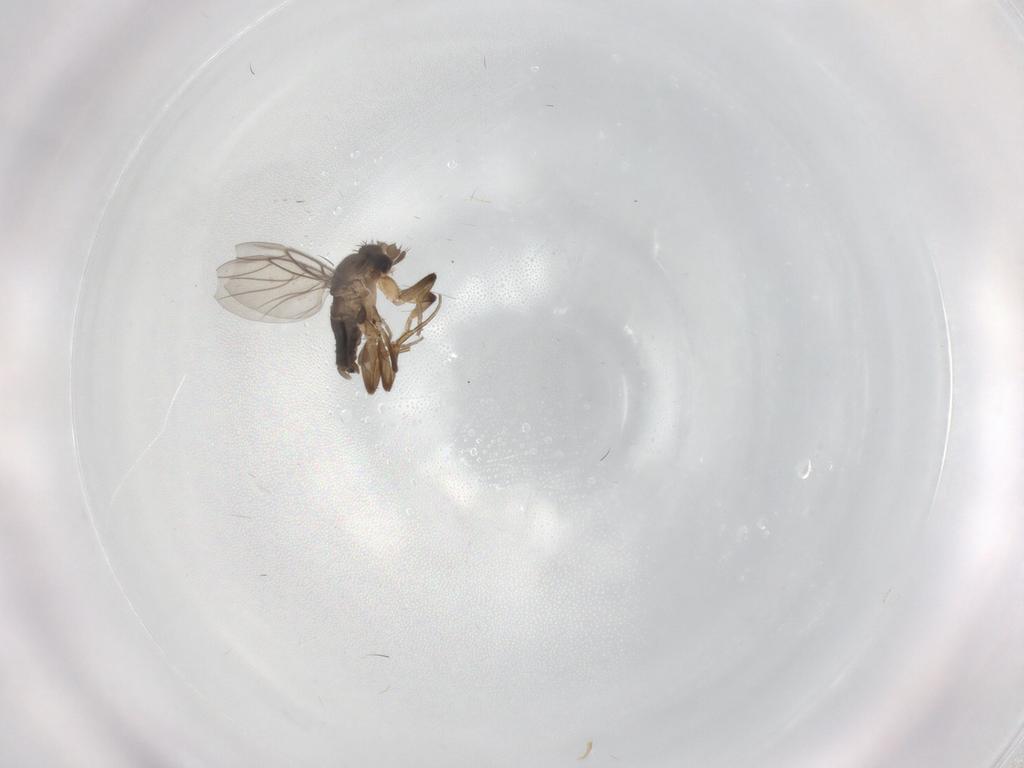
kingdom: Animalia
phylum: Arthropoda
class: Insecta
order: Diptera
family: Phoridae
